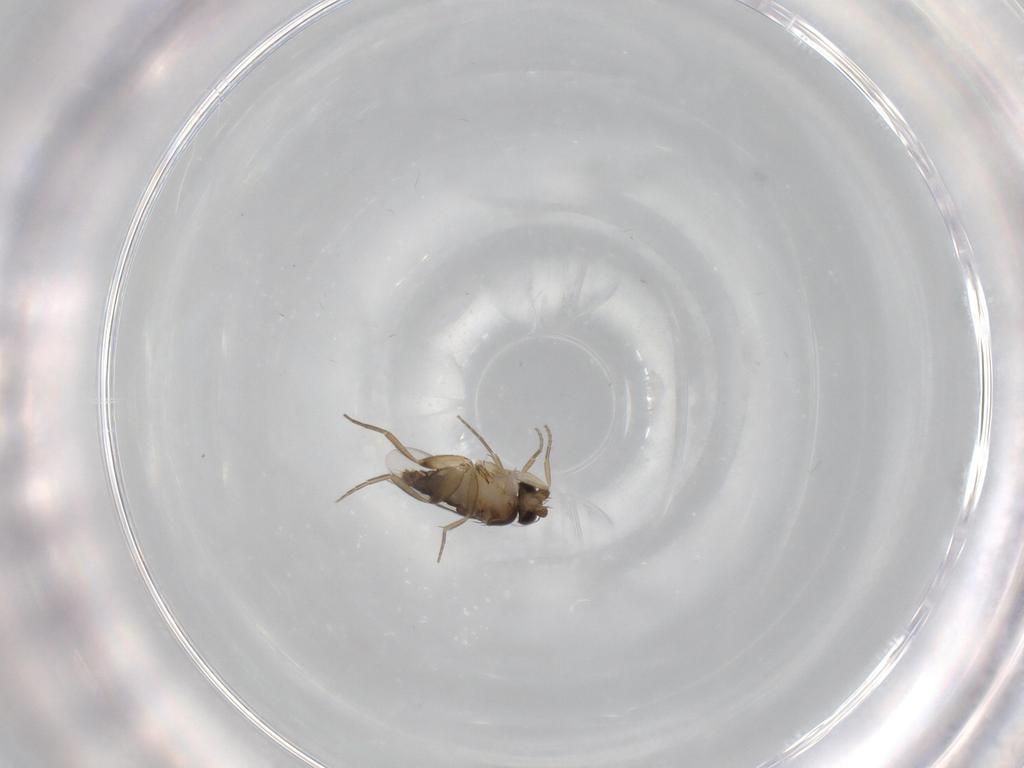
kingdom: Animalia
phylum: Arthropoda
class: Insecta
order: Diptera
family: Phoridae
